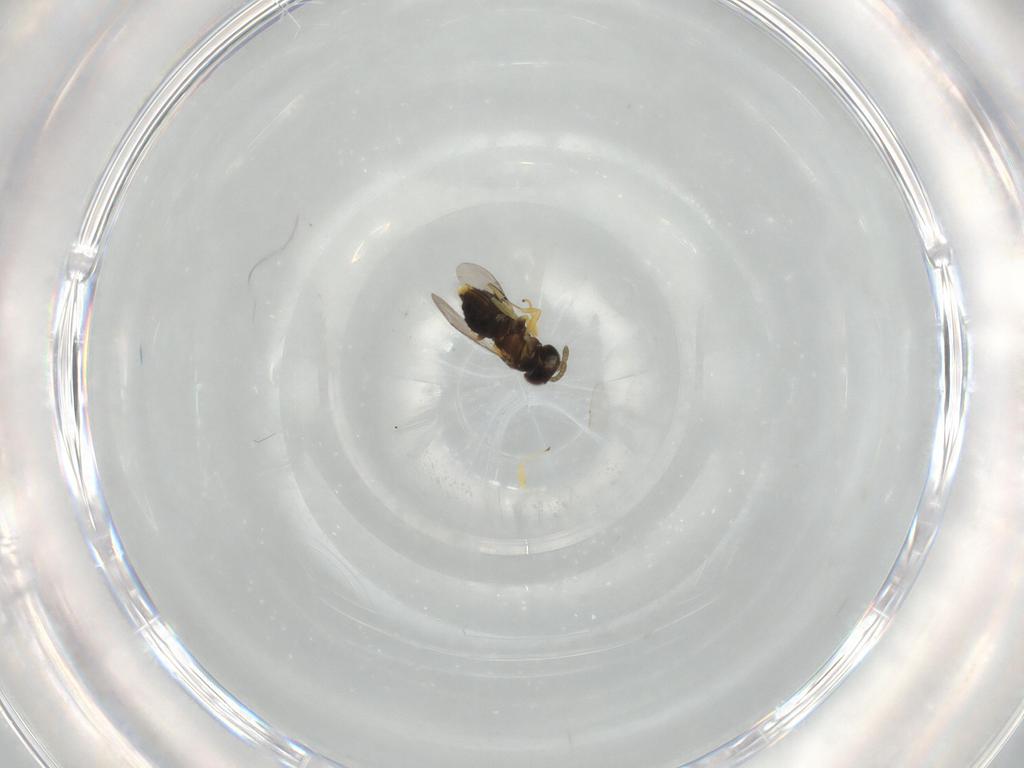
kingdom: Animalia
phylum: Arthropoda
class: Insecta
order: Hymenoptera
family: Aphelinidae
